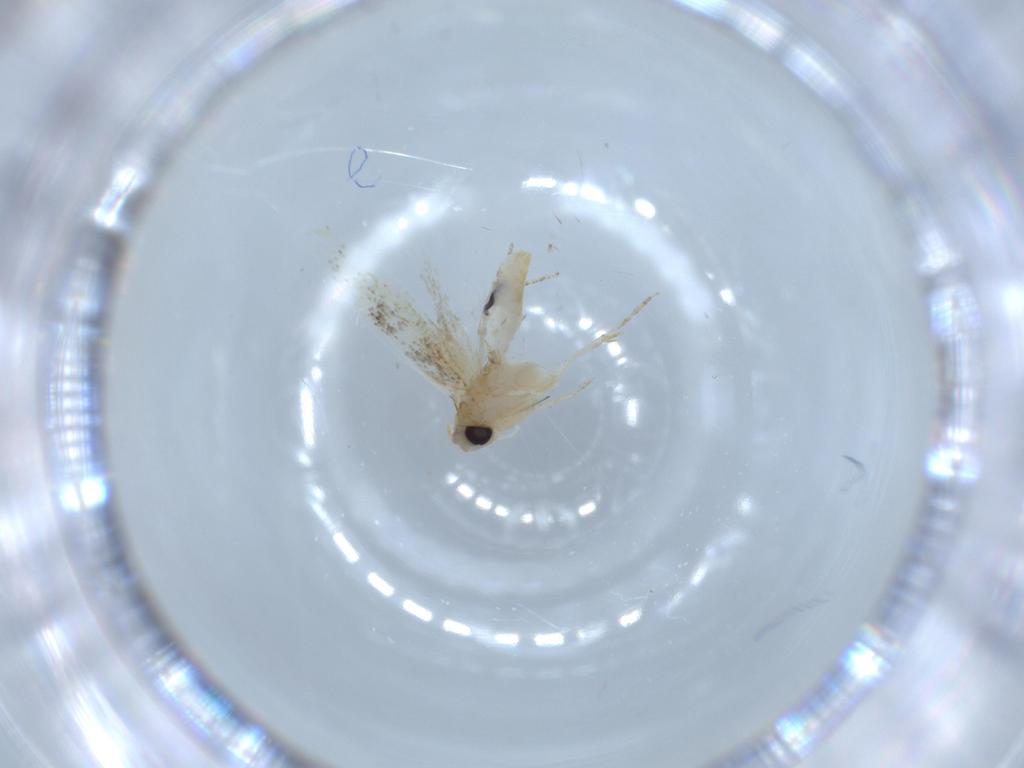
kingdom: Animalia
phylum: Arthropoda
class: Insecta
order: Lepidoptera
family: Bucculatricidae
